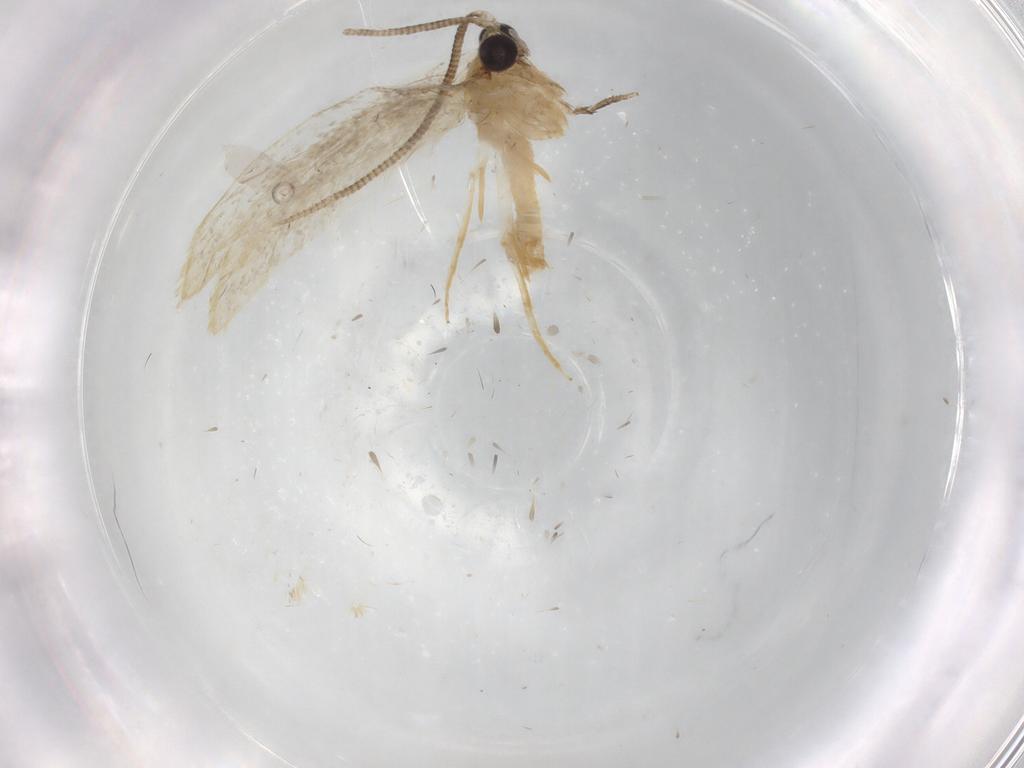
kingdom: Animalia
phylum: Arthropoda
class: Insecta
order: Lepidoptera
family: Tineidae
